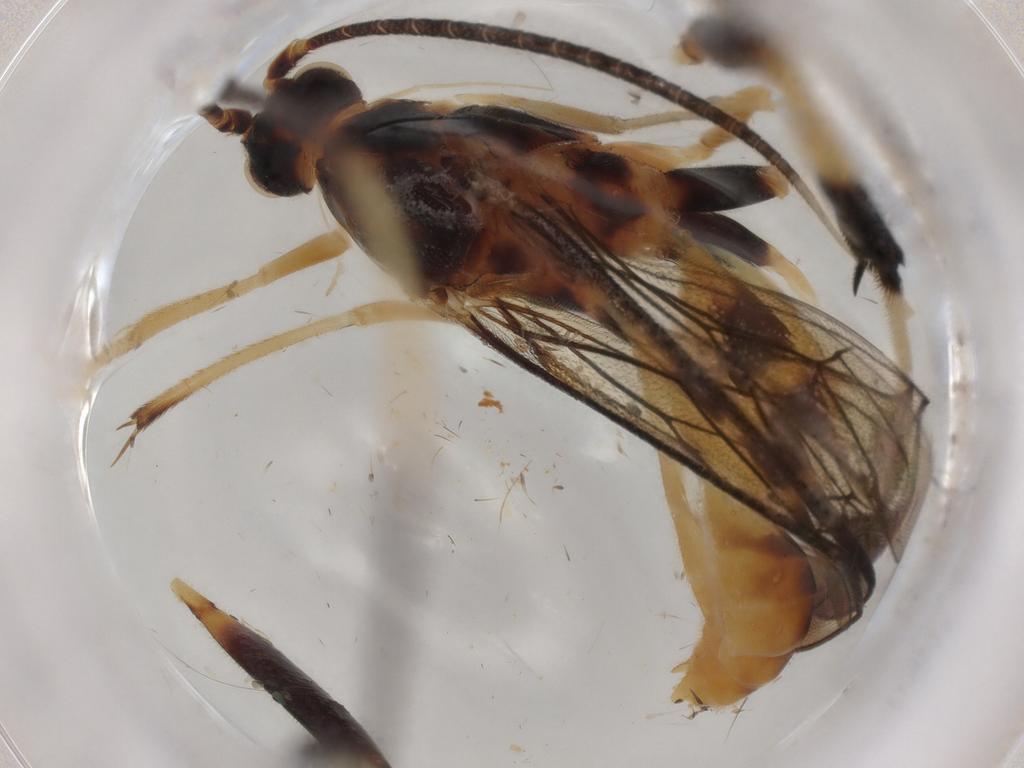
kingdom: Animalia
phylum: Arthropoda
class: Insecta
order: Hymenoptera
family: Braconidae
